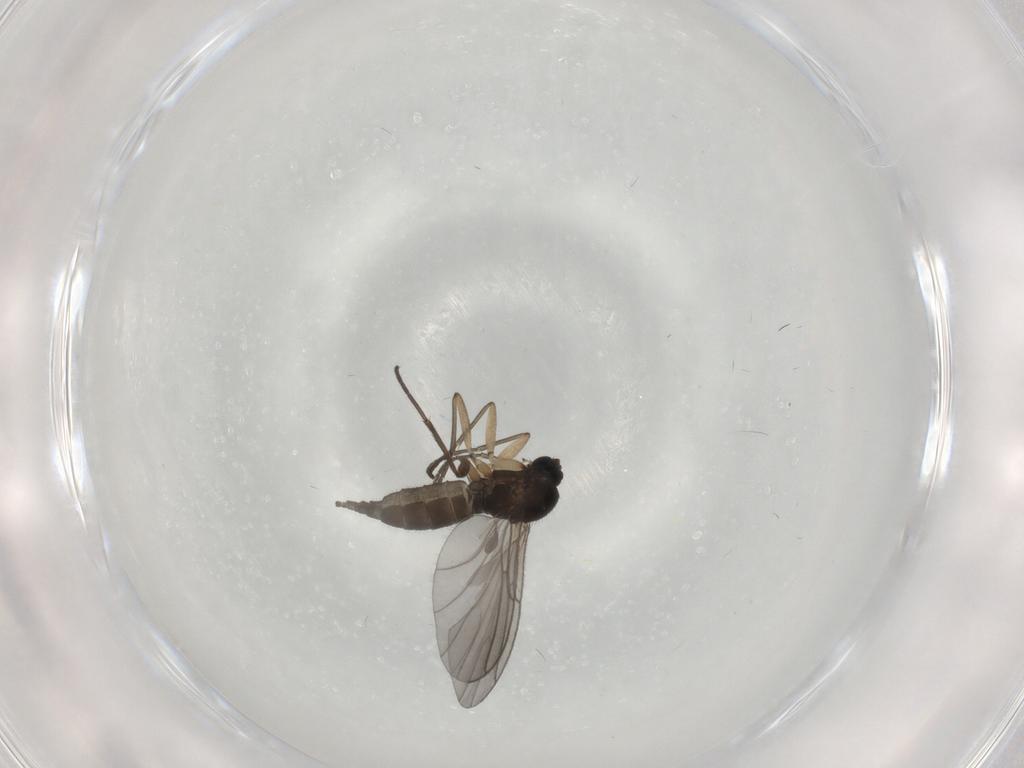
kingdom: Animalia
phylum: Arthropoda
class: Insecta
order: Diptera
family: Sciaridae
